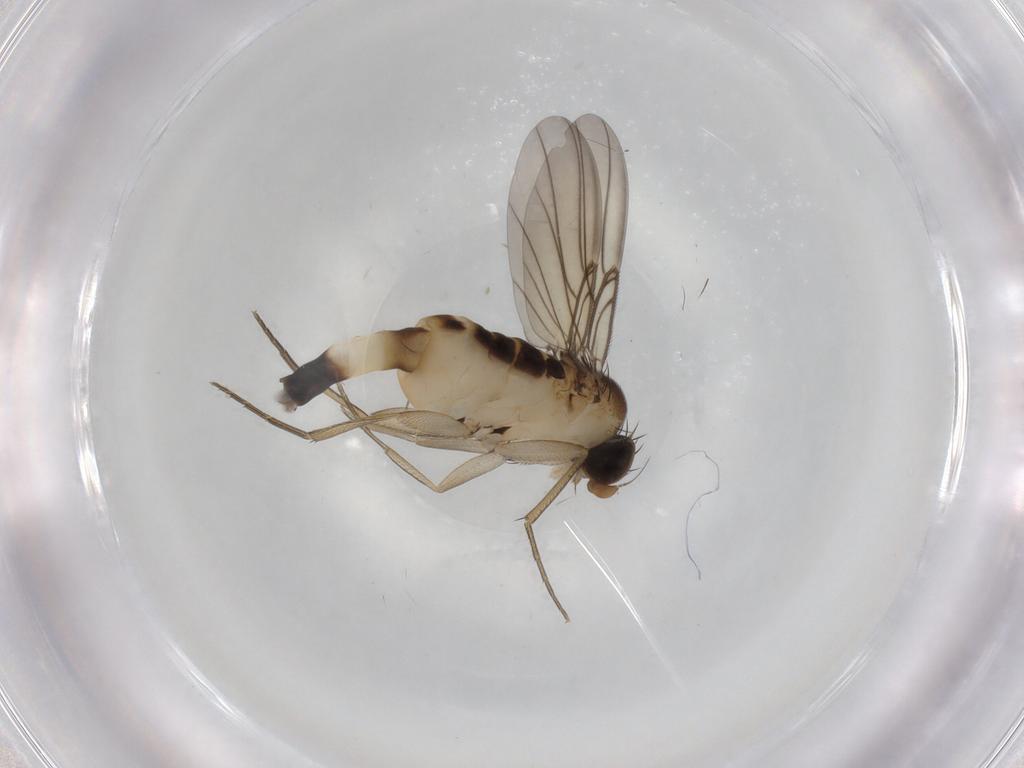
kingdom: Animalia
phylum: Arthropoda
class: Insecta
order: Diptera
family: Phoridae
